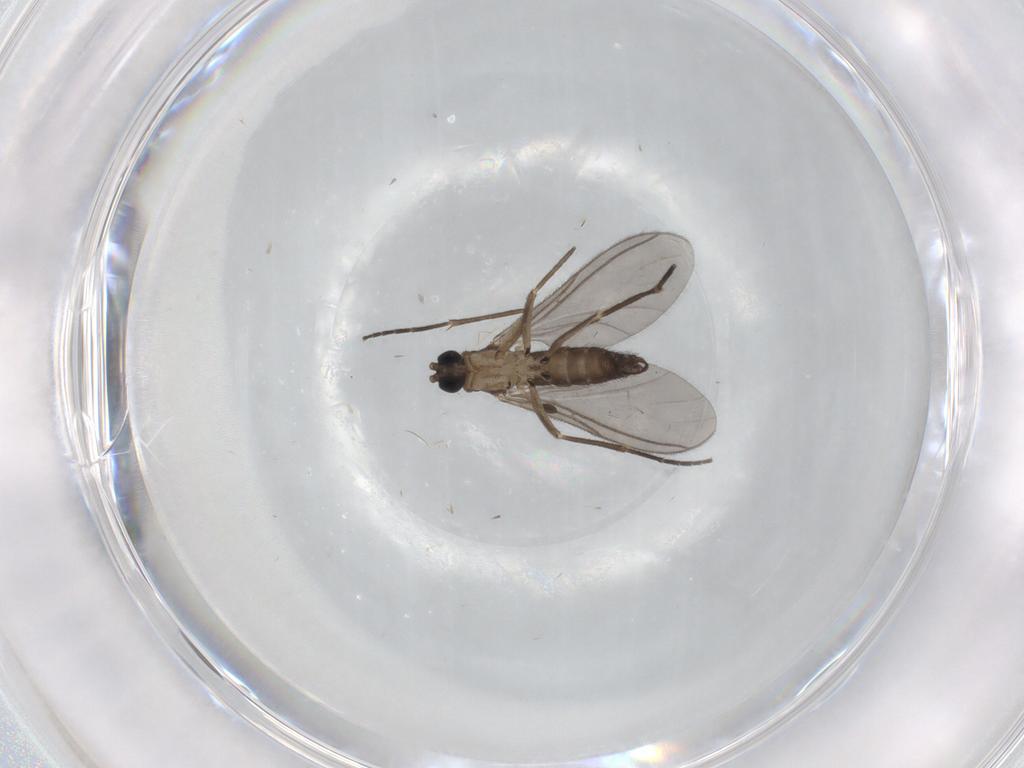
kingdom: Animalia
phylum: Arthropoda
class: Insecta
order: Diptera
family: Sciaridae
